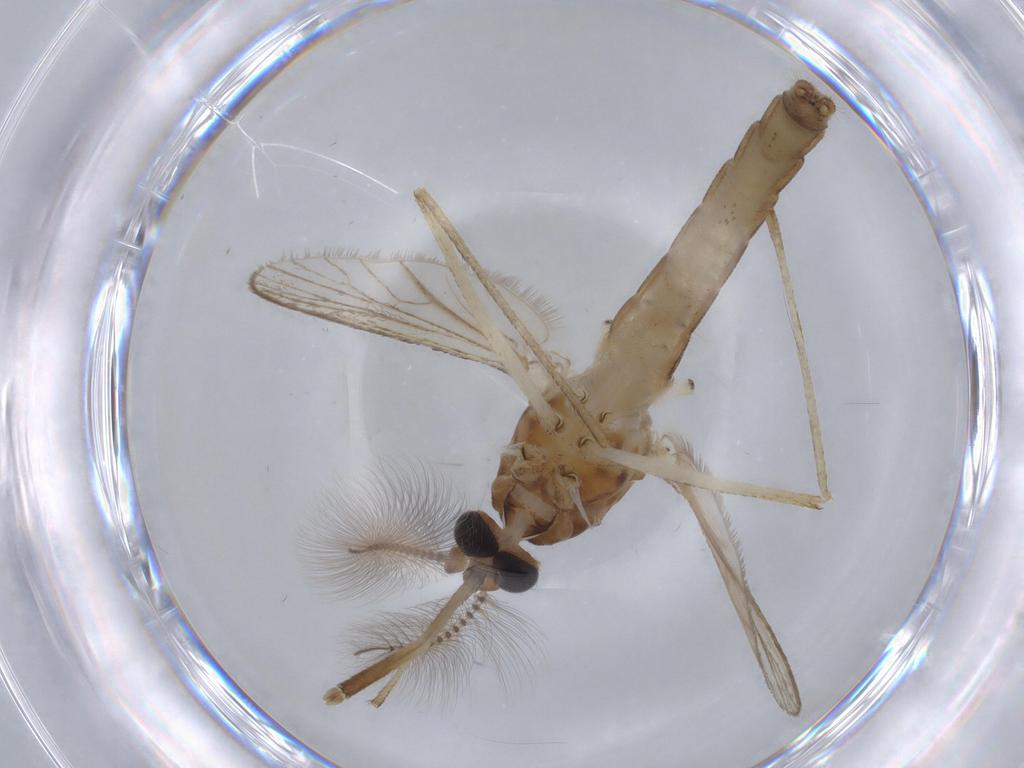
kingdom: Animalia
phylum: Arthropoda
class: Insecta
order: Diptera
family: Culicidae
